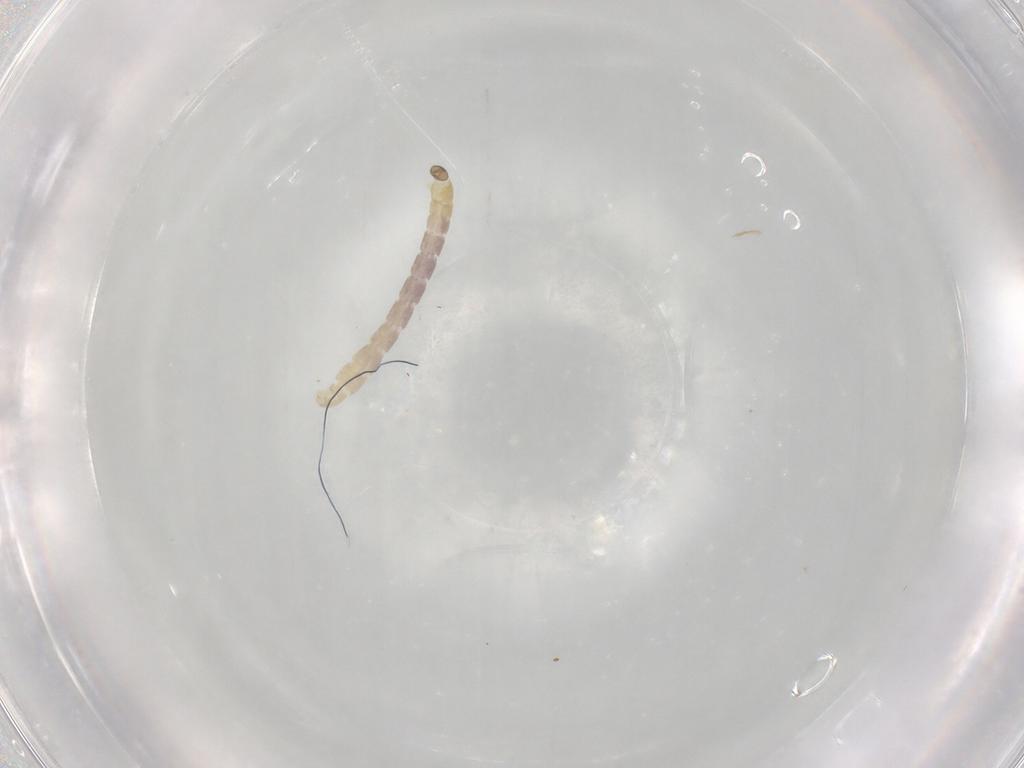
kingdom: Animalia
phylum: Arthropoda
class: Insecta
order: Diptera
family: Chironomidae
